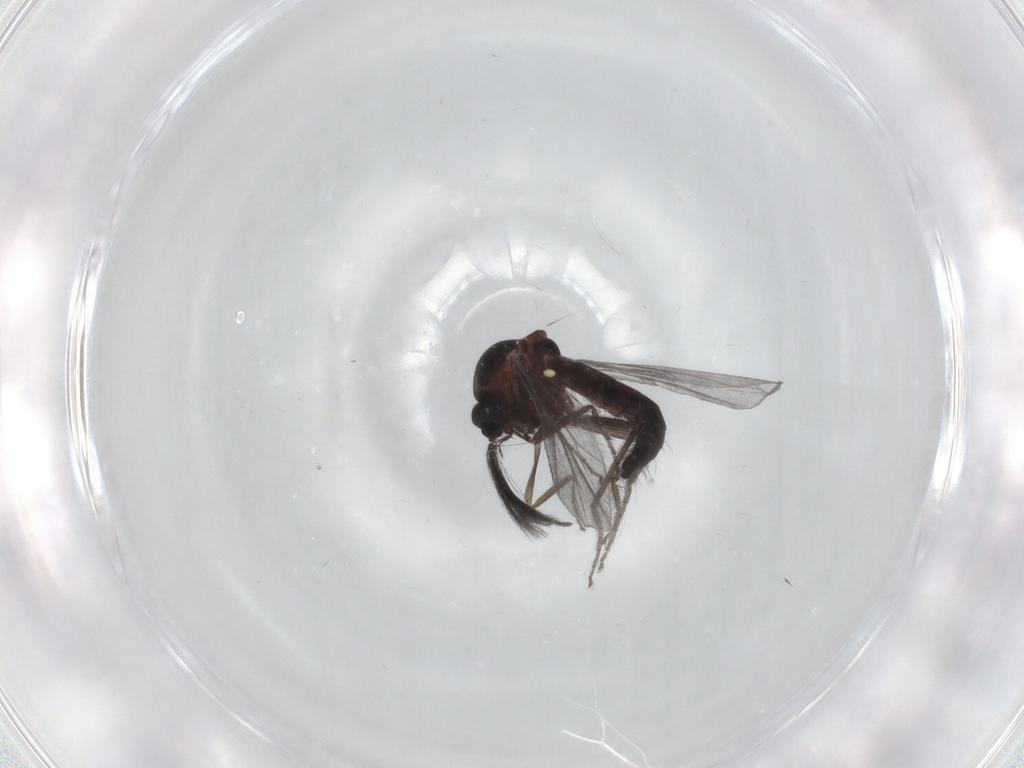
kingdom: Animalia
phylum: Arthropoda
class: Insecta
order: Diptera
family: Ceratopogonidae
